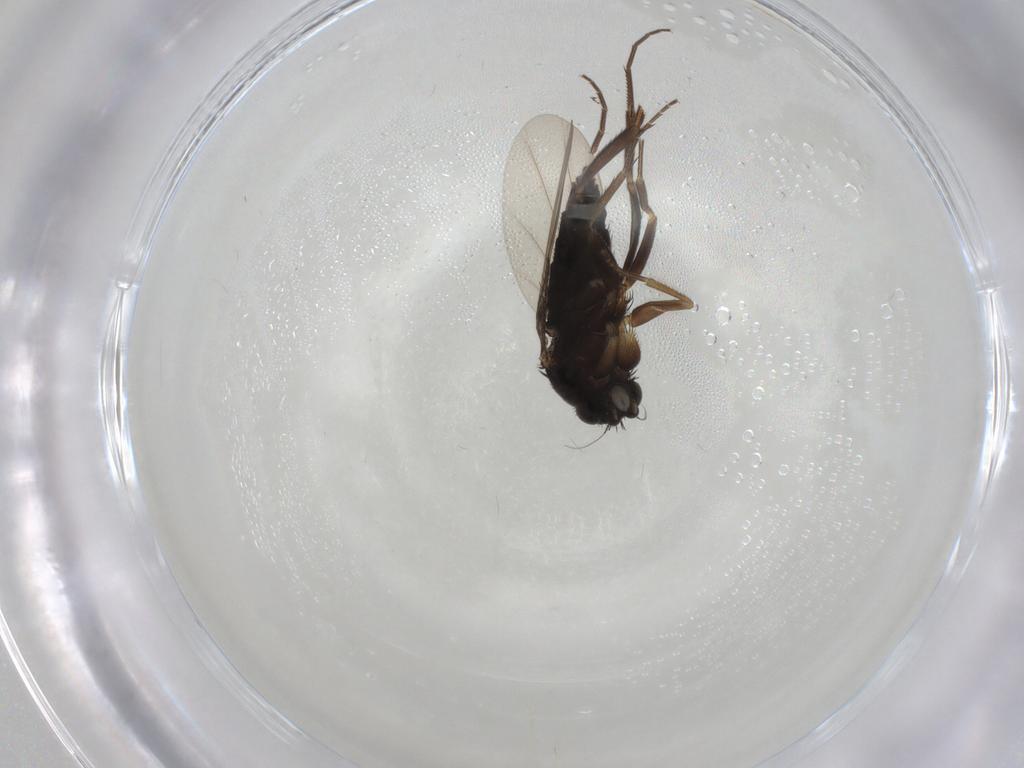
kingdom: Animalia
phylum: Arthropoda
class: Insecta
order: Diptera
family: Phoridae
